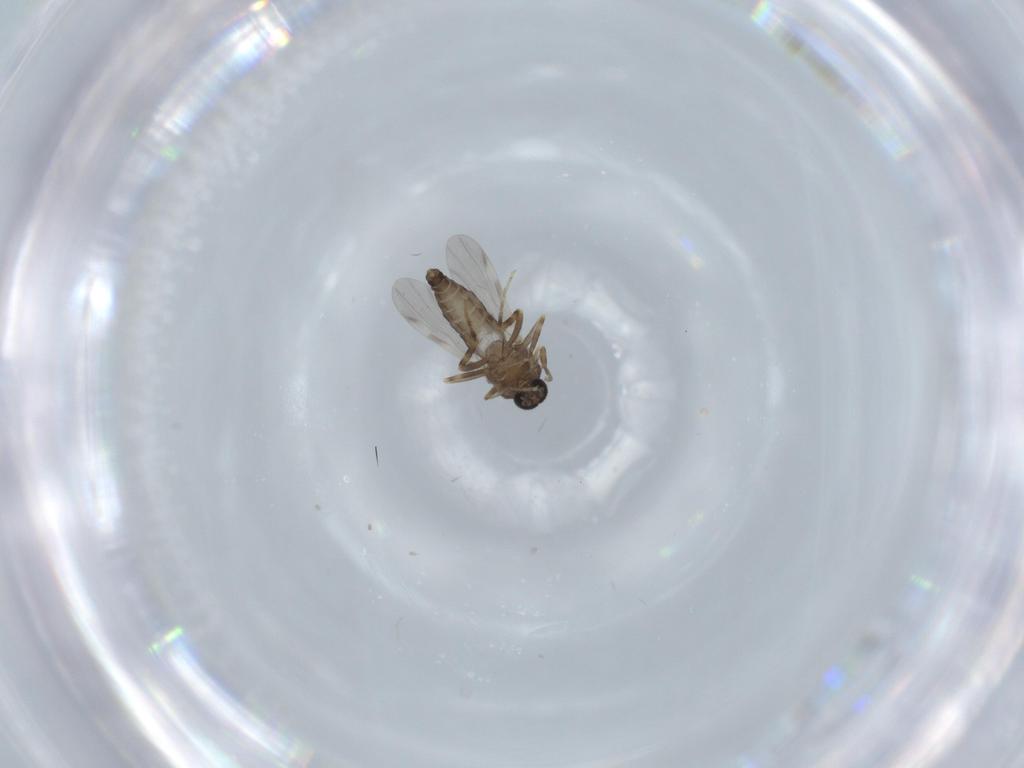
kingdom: Animalia
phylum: Arthropoda
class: Insecta
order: Diptera
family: Ceratopogonidae
